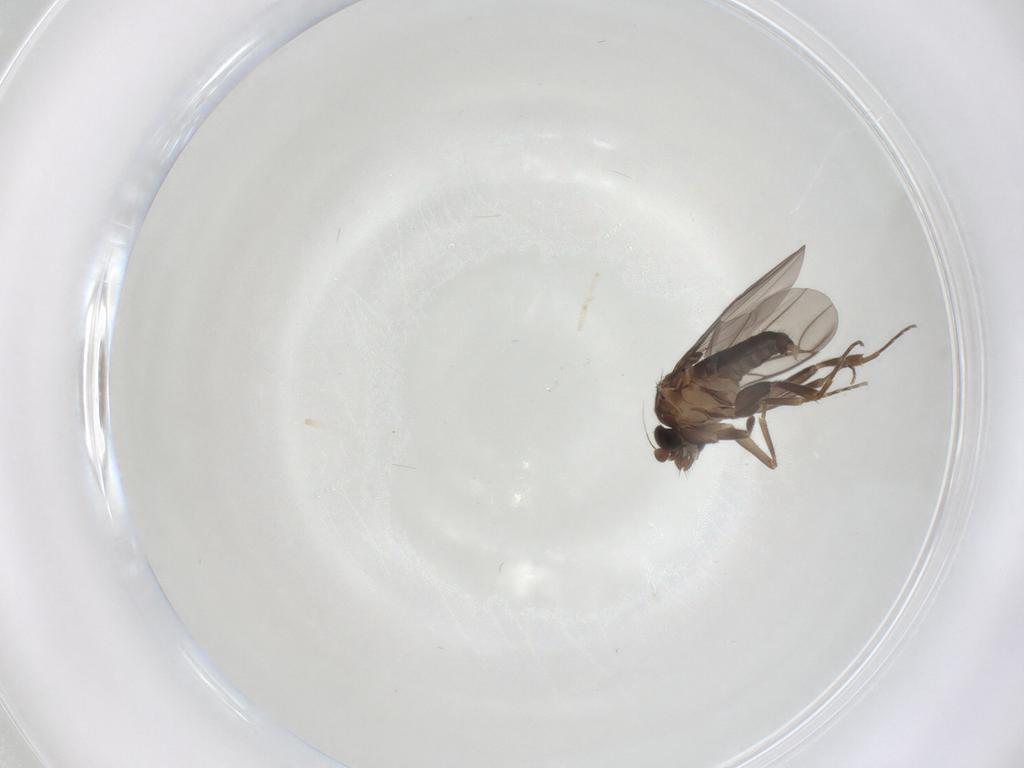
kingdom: Animalia
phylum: Arthropoda
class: Insecta
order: Diptera
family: Phoridae
